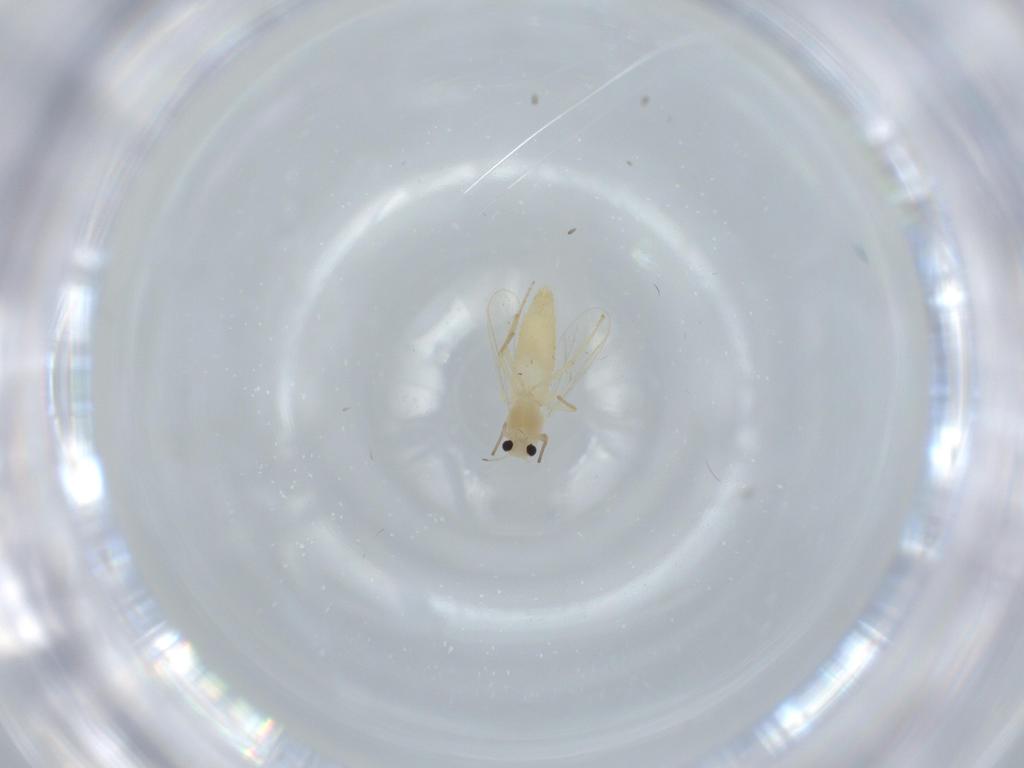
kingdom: Animalia
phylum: Arthropoda
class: Insecta
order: Diptera
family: Chironomidae
